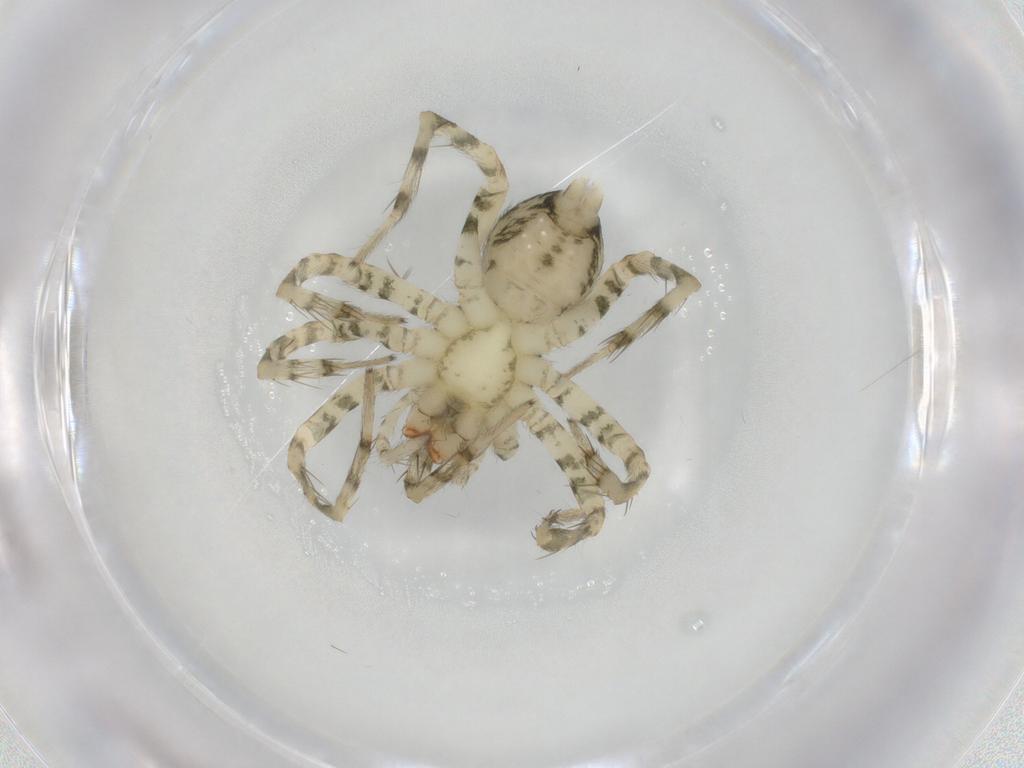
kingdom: Animalia
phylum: Arthropoda
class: Arachnida
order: Araneae
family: Amaurobiidae
